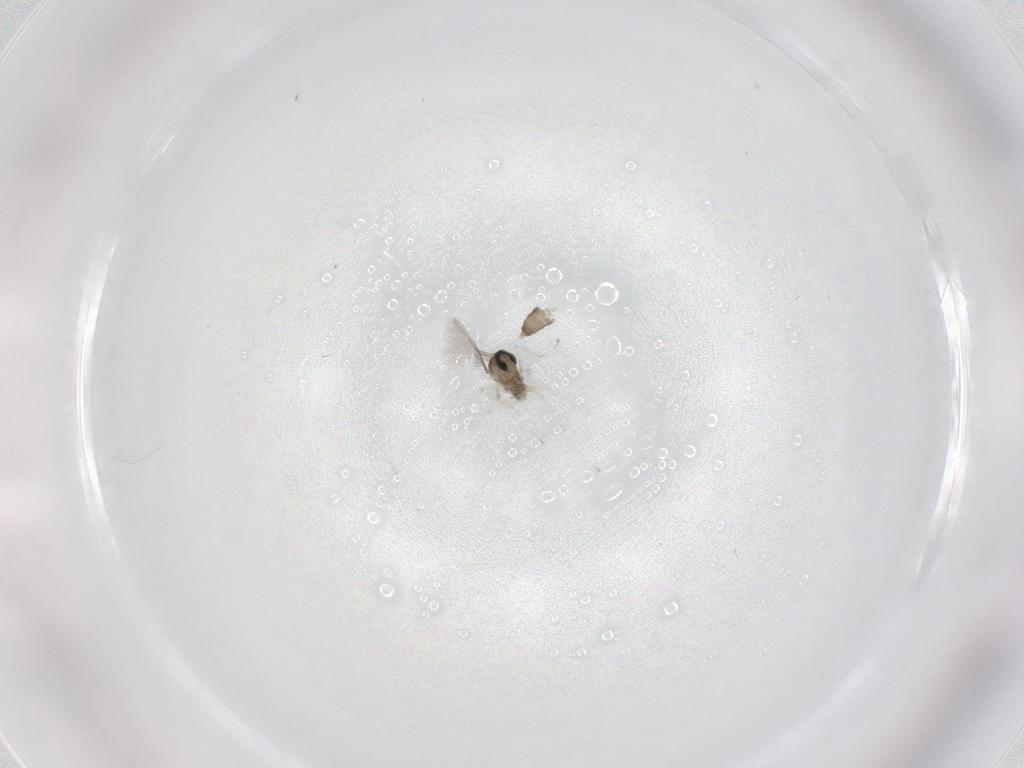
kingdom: Animalia
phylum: Arthropoda
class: Insecta
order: Diptera
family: Cecidomyiidae
